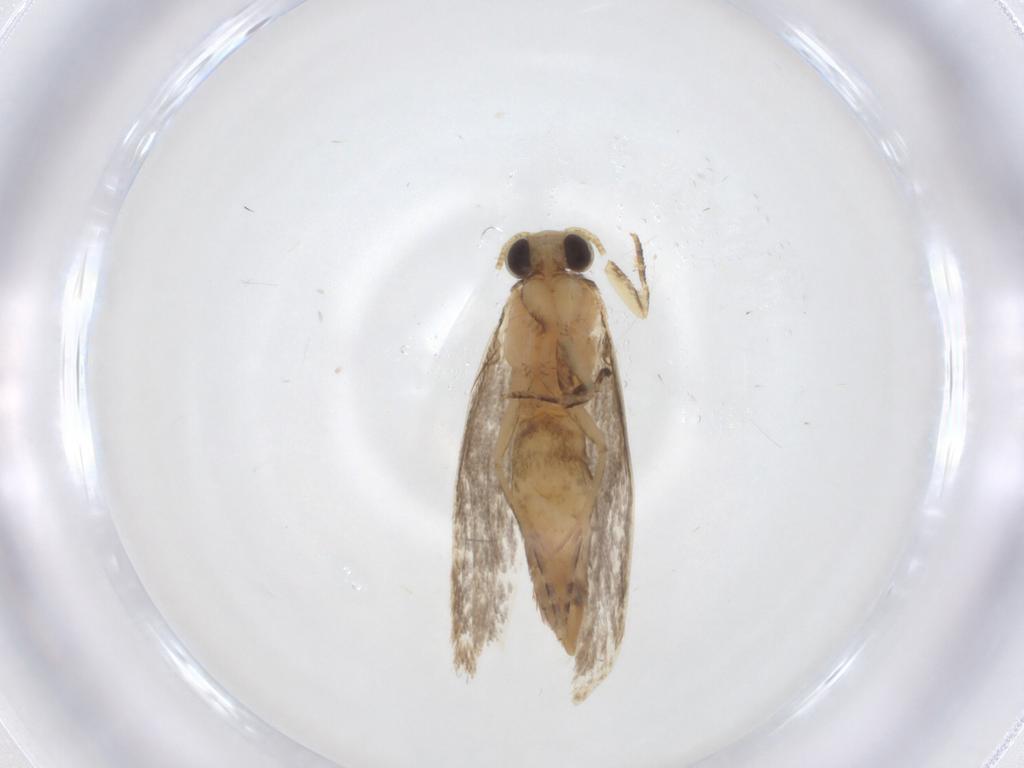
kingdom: Animalia
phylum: Arthropoda
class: Insecta
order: Lepidoptera
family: Tineidae
